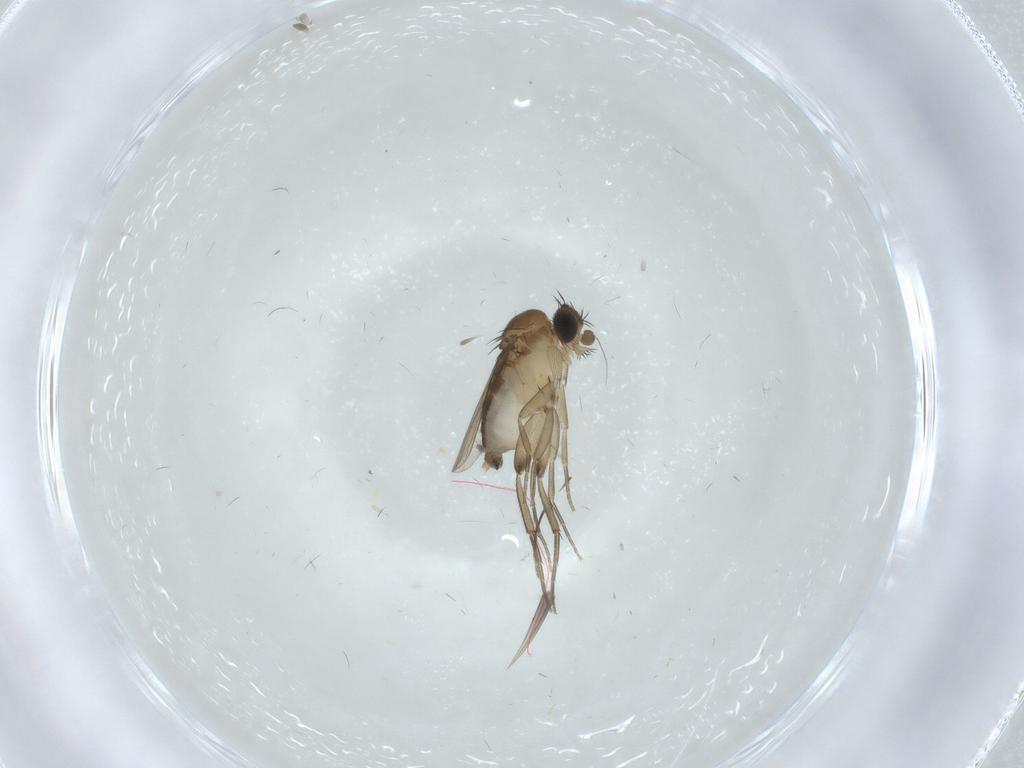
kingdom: Animalia
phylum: Arthropoda
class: Insecta
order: Diptera
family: Phoridae
